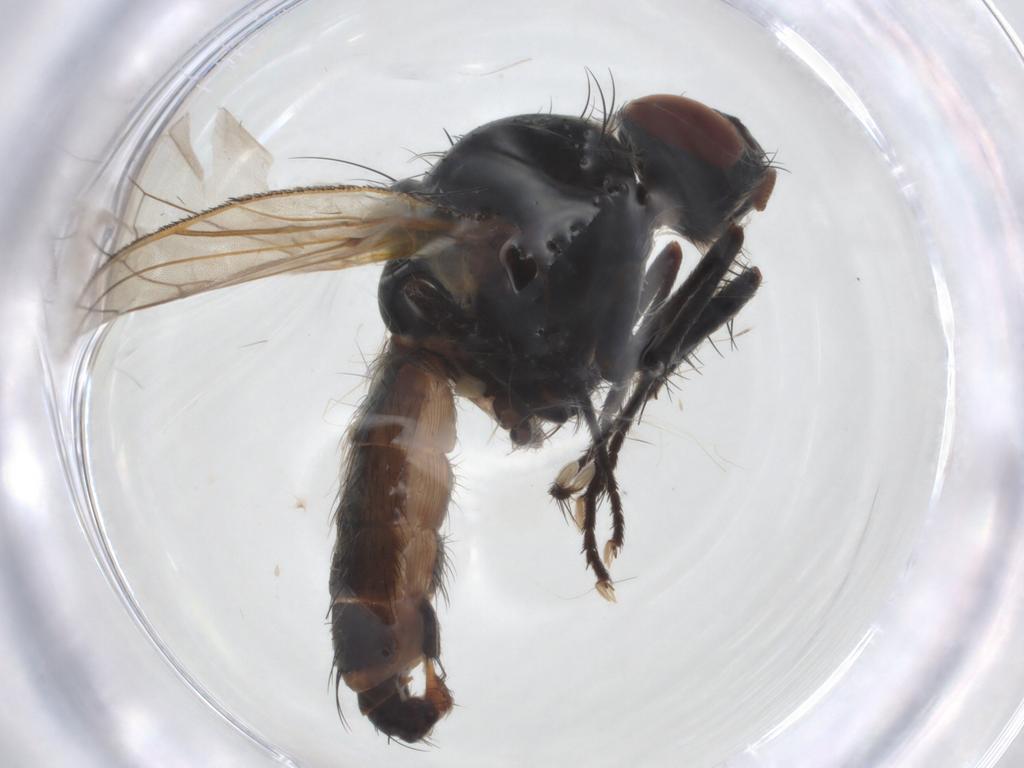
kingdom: Animalia
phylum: Arthropoda
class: Insecta
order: Diptera
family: Anthomyiidae
